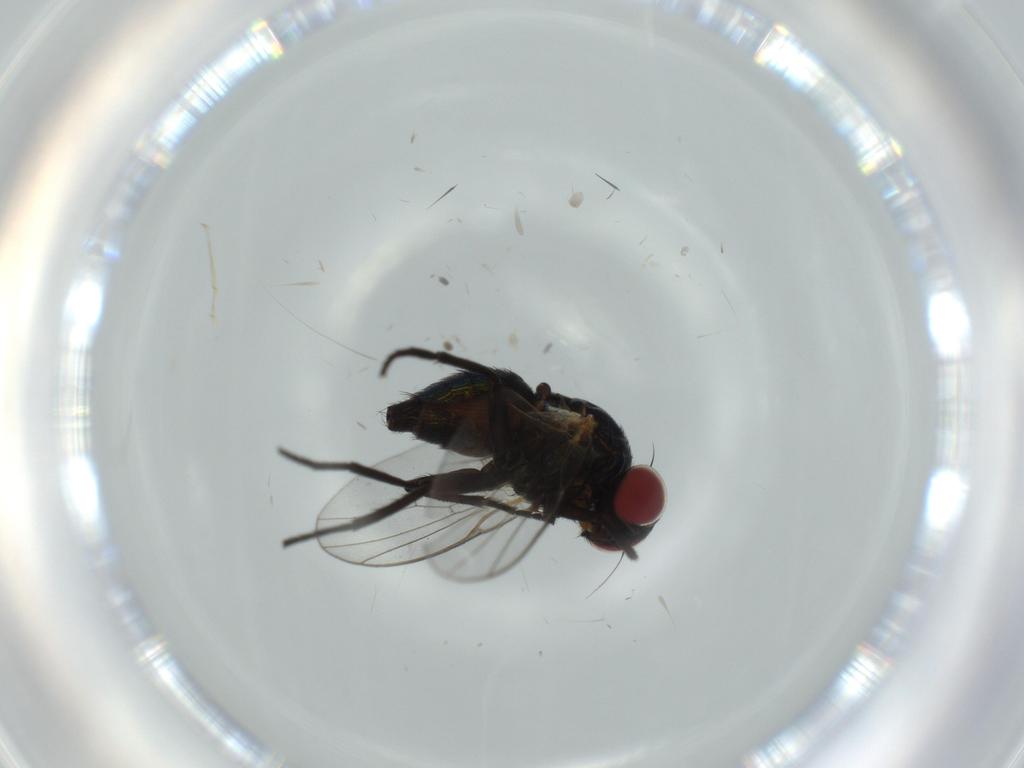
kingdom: Animalia
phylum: Arthropoda
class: Insecta
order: Diptera
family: Agromyzidae
